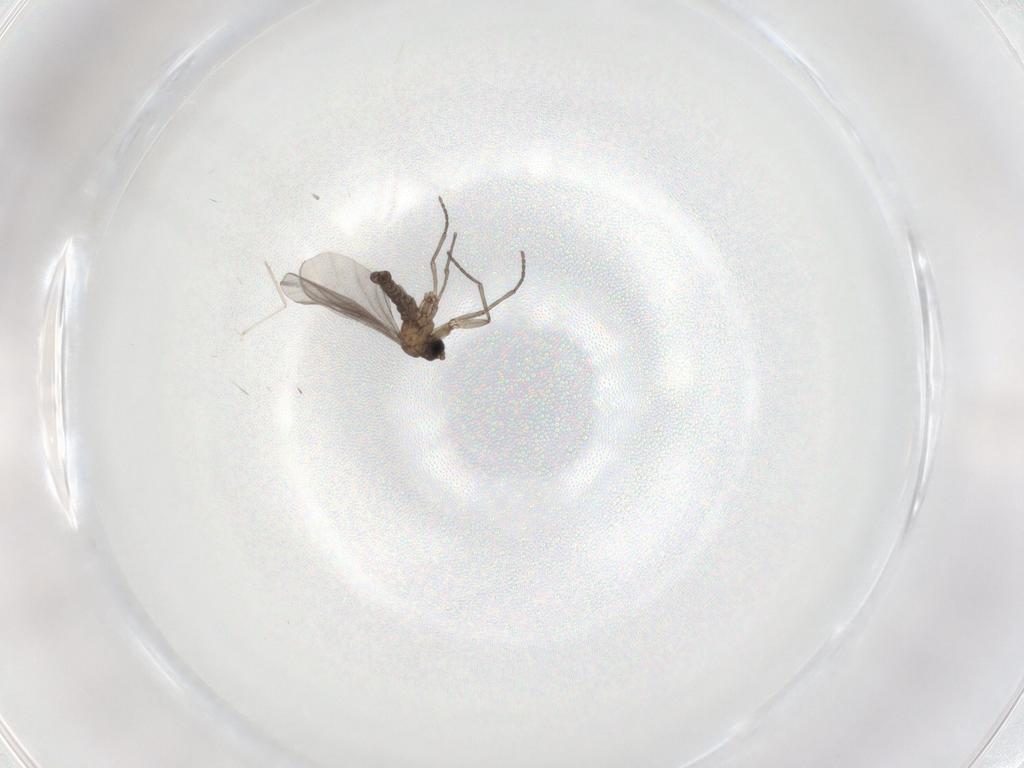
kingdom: Animalia
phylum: Arthropoda
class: Insecta
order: Diptera
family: Sciaridae
